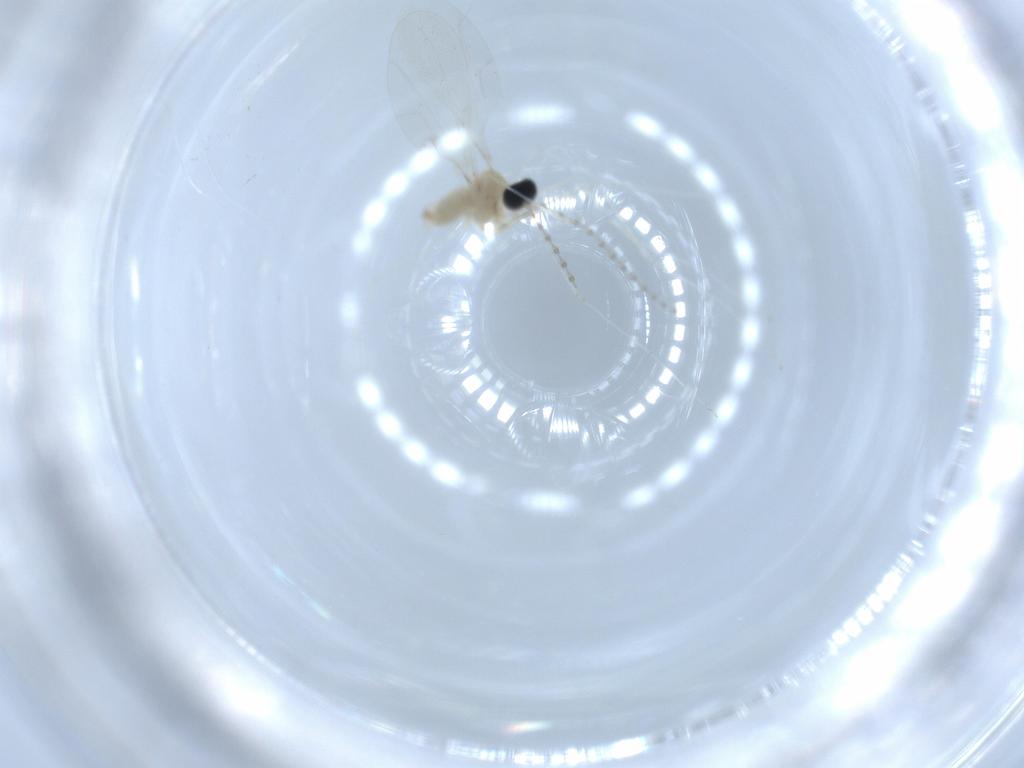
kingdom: Animalia
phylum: Arthropoda
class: Insecta
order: Diptera
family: Cecidomyiidae
